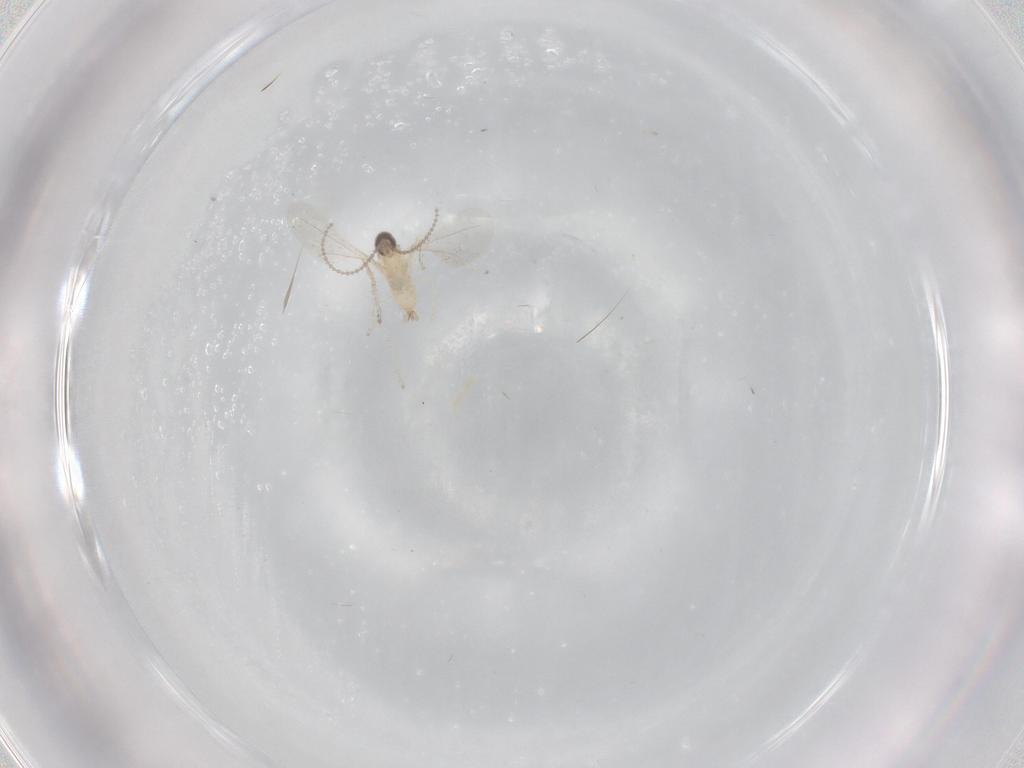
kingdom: Animalia
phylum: Arthropoda
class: Insecta
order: Diptera
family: Cecidomyiidae
